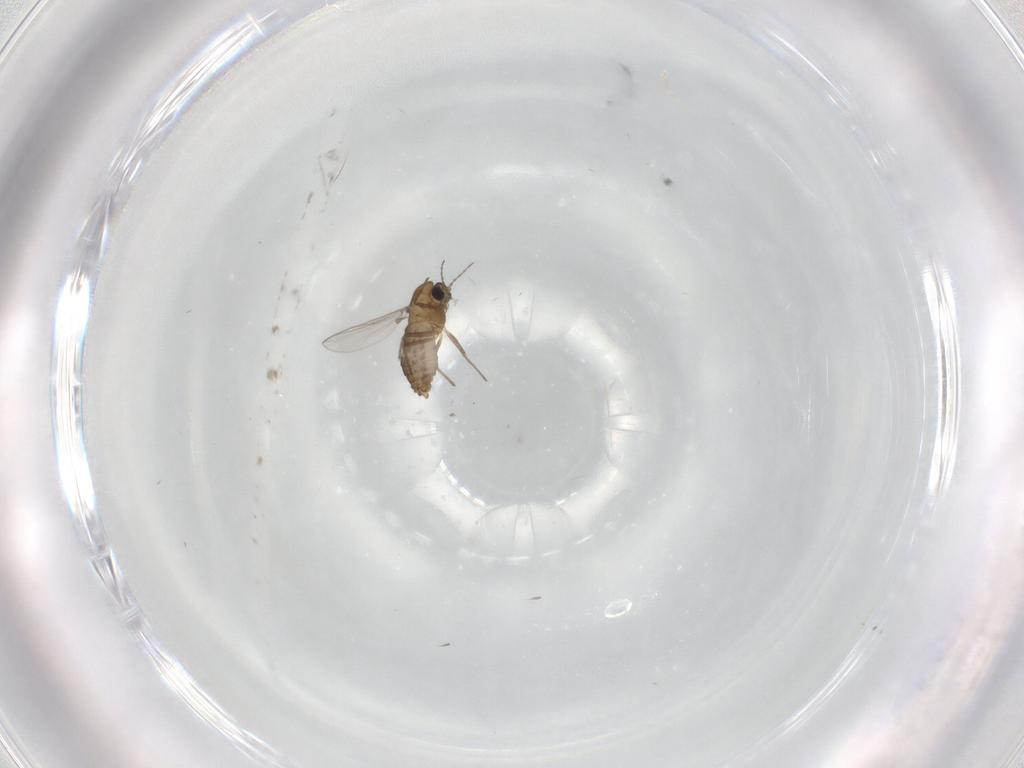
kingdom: Animalia
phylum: Arthropoda
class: Insecta
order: Diptera
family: Chironomidae
